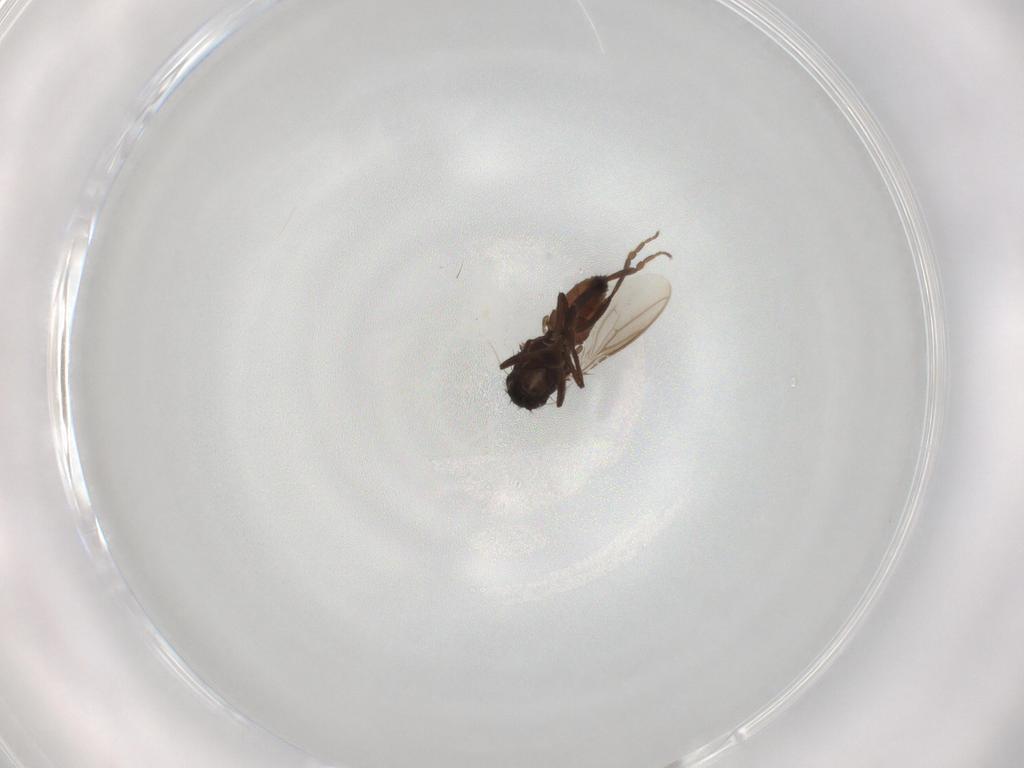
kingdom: Animalia
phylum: Arthropoda
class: Insecta
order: Diptera
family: Sphaeroceridae
